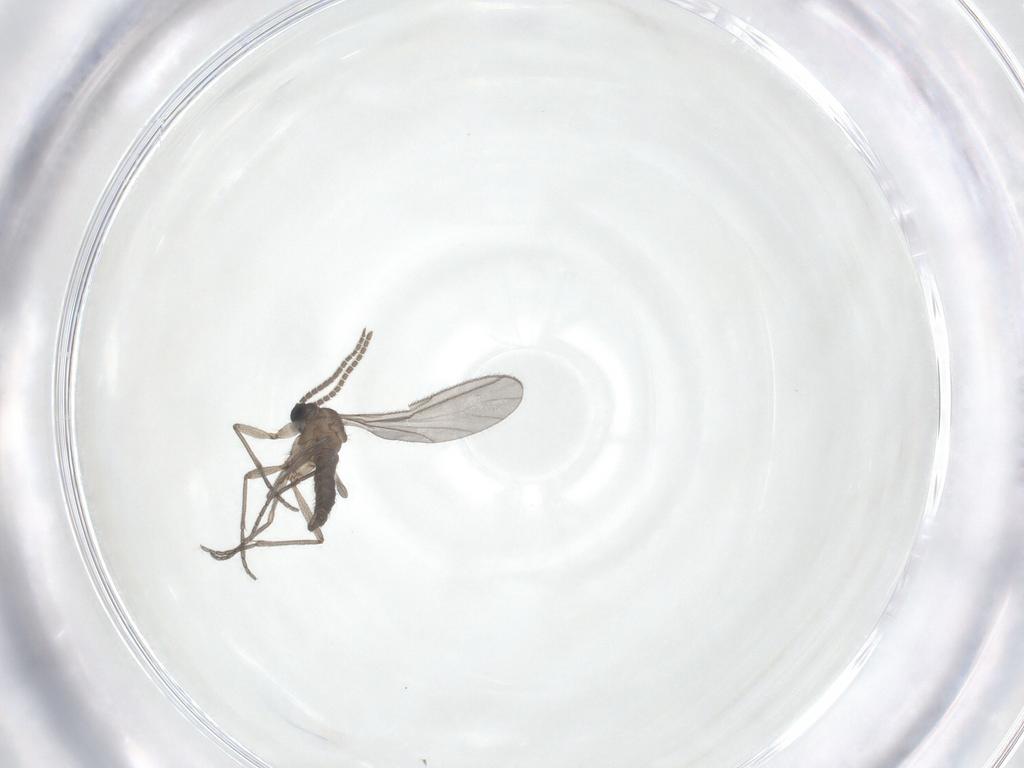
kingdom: Animalia
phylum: Arthropoda
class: Insecta
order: Diptera
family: Sciaridae
